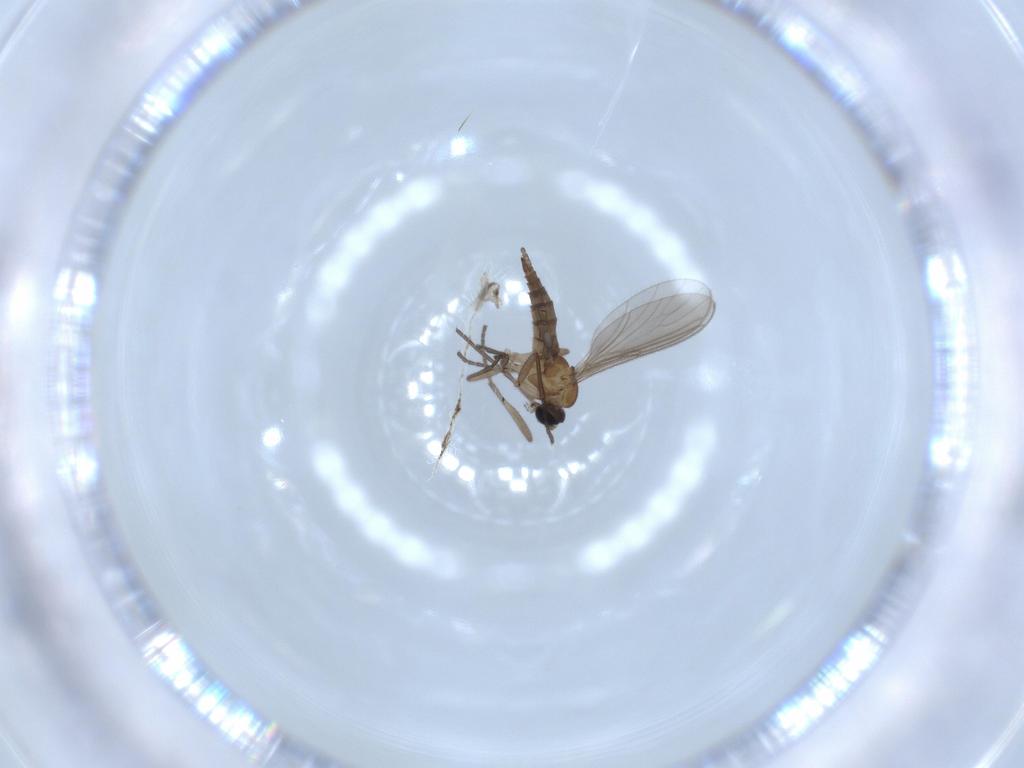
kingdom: Animalia
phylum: Arthropoda
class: Insecta
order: Diptera
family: Sciaridae
